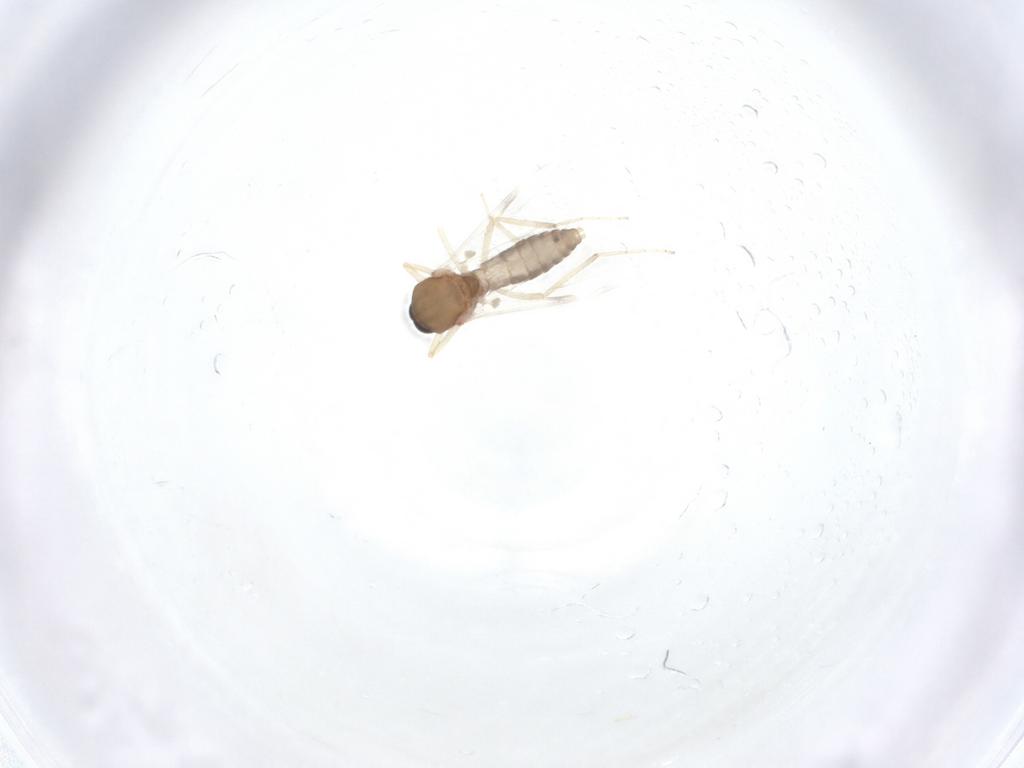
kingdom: Animalia
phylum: Arthropoda
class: Insecta
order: Diptera
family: Ceratopogonidae
